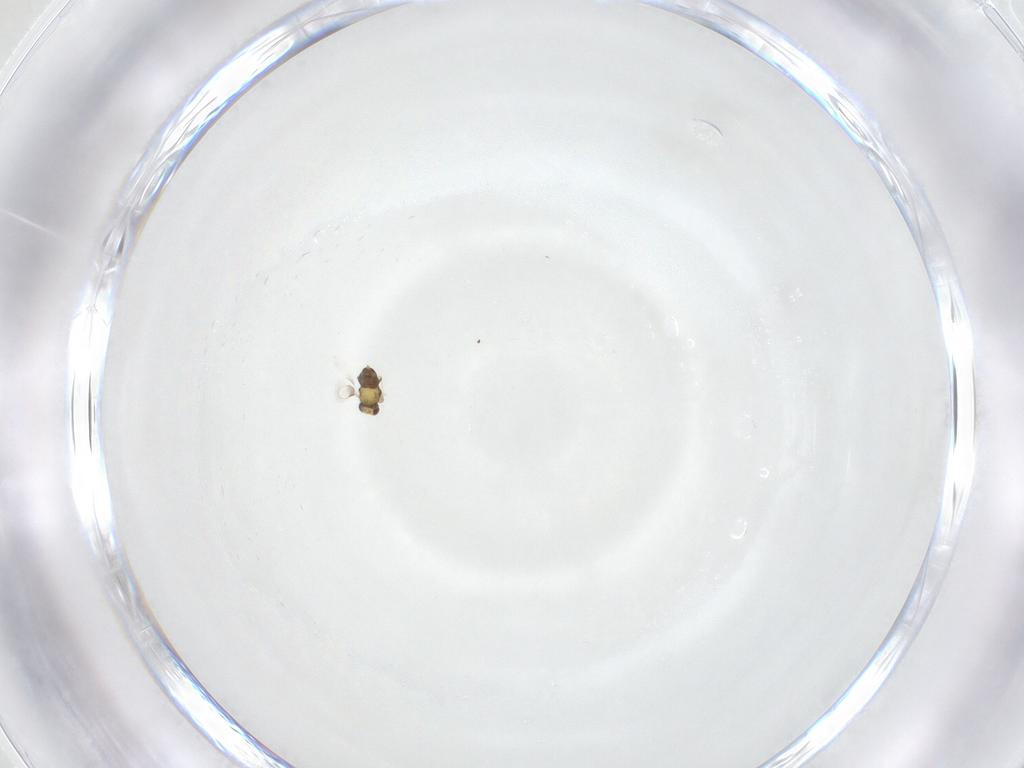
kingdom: Animalia
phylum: Arthropoda
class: Insecta
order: Hymenoptera
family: Aphelinidae
